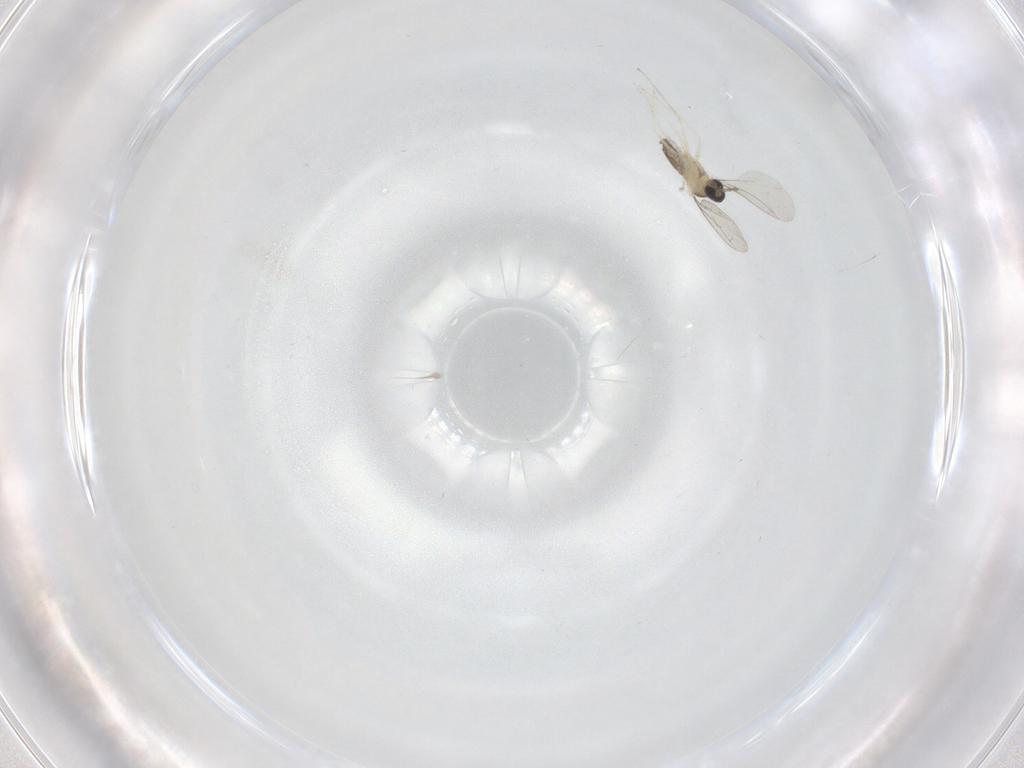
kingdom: Animalia
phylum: Arthropoda
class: Insecta
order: Diptera
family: Cecidomyiidae
